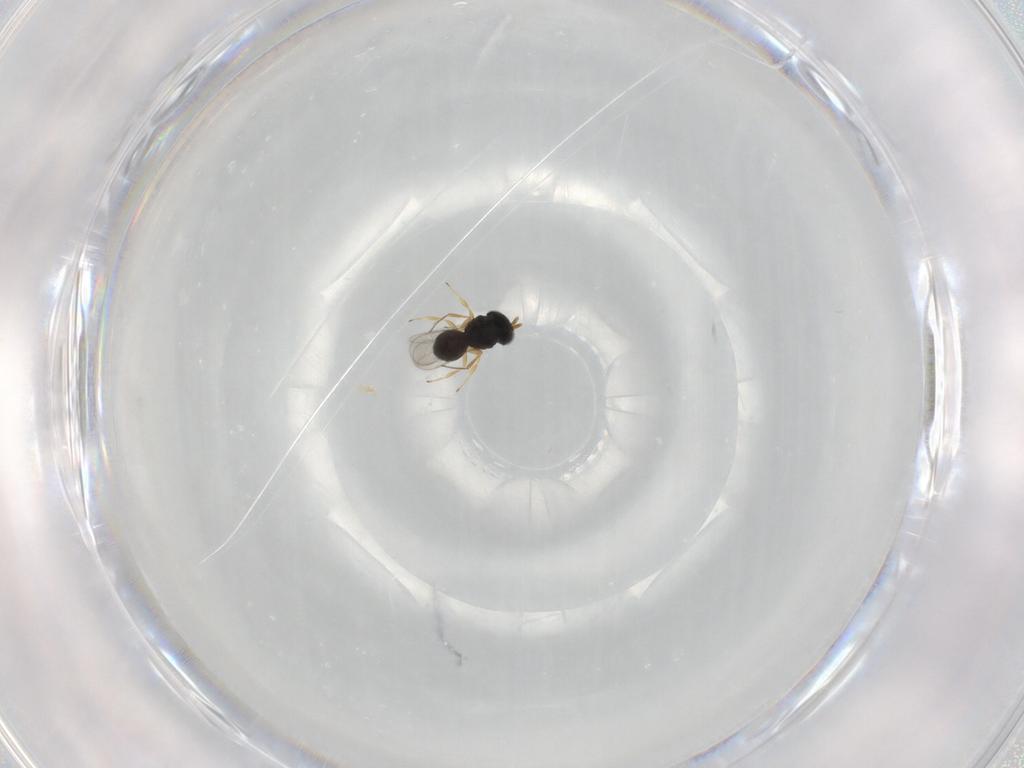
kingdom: Animalia
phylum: Arthropoda
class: Insecta
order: Hymenoptera
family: Scelionidae
